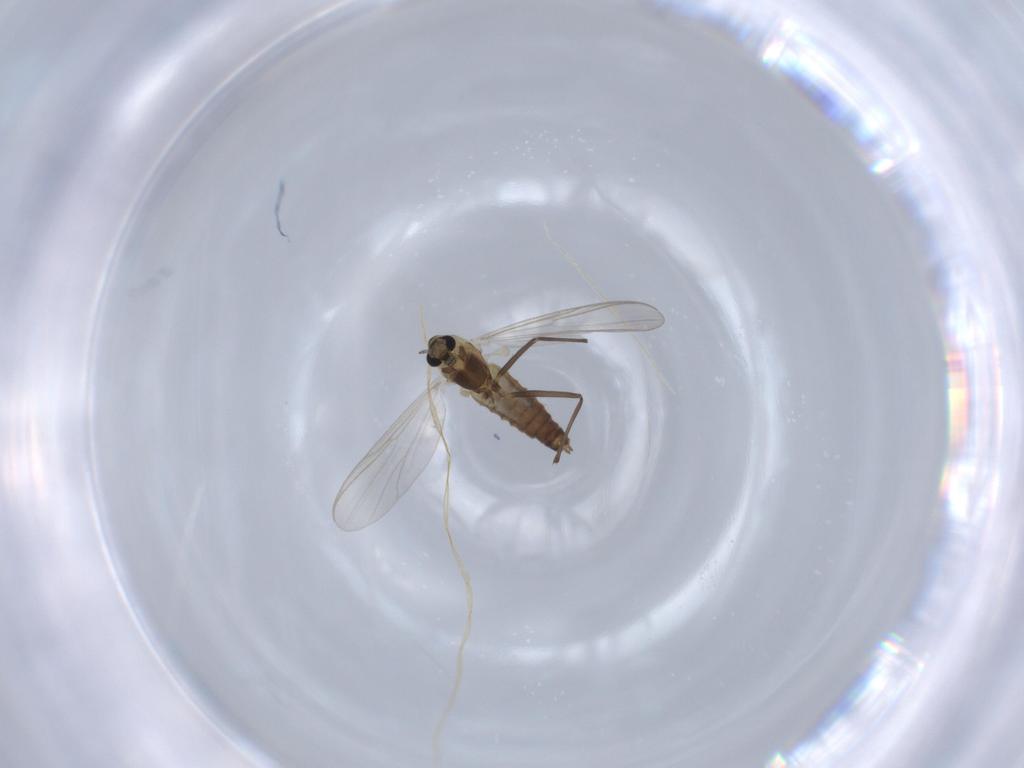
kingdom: Animalia
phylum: Arthropoda
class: Insecta
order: Diptera
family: Chironomidae
